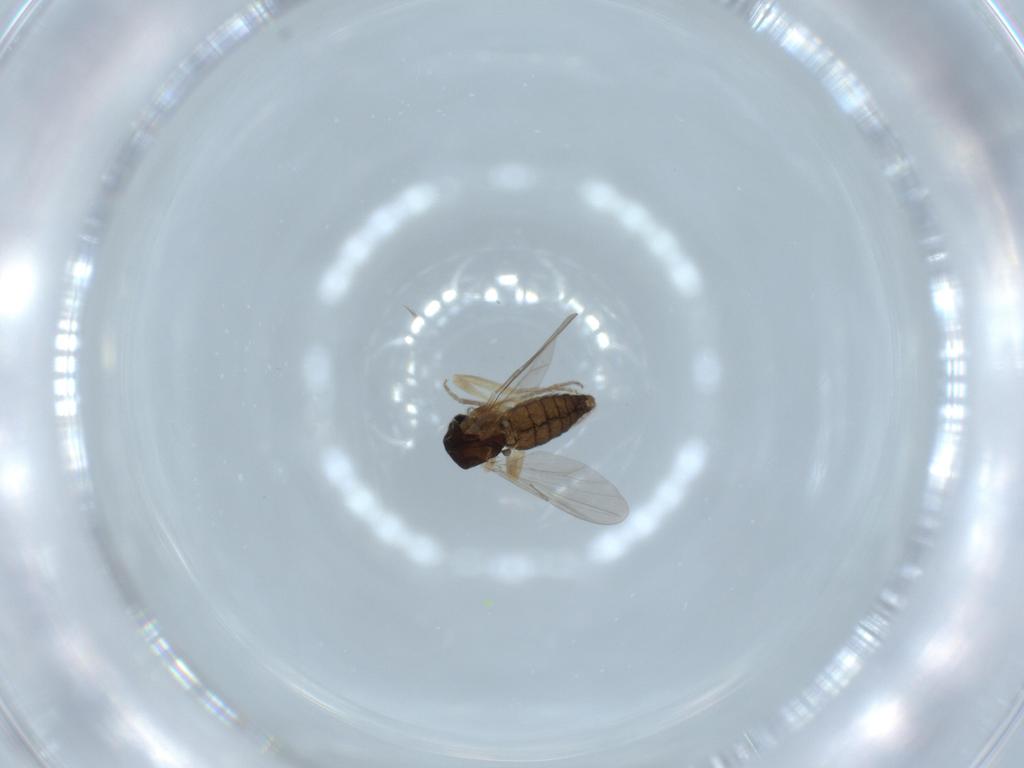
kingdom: Animalia
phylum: Arthropoda
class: Insecta
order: Diptera
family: Ceratopogonidae
